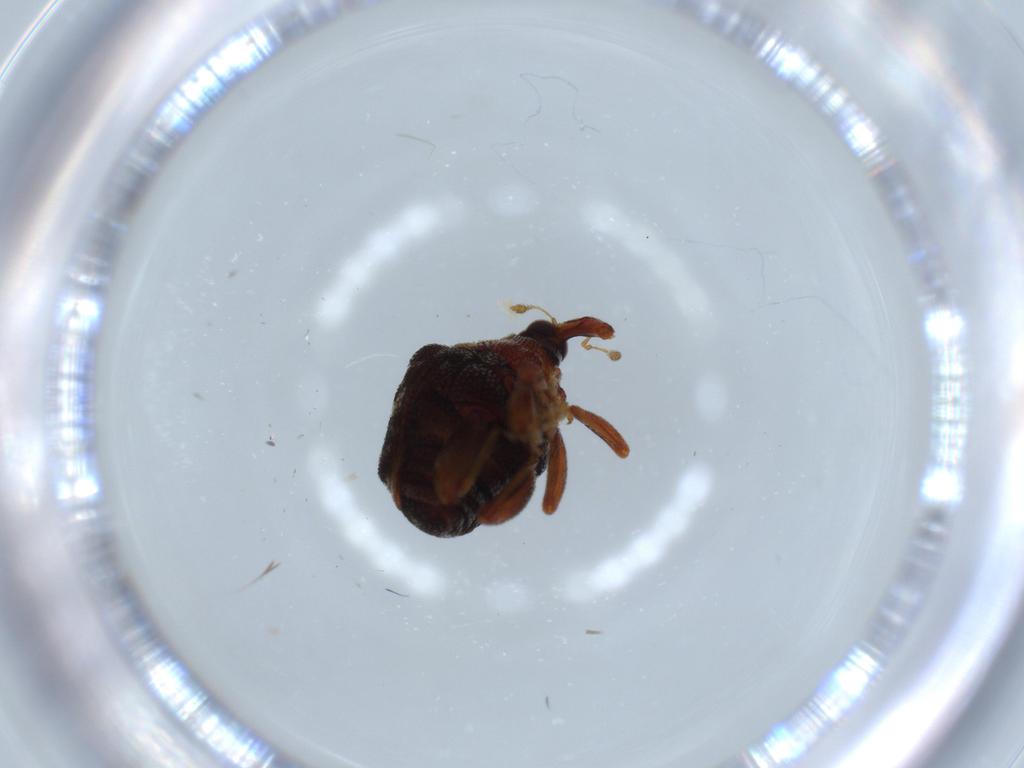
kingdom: Animalia
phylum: Arthropoda
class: Insecta
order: Coleoptera
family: Curculionidae
